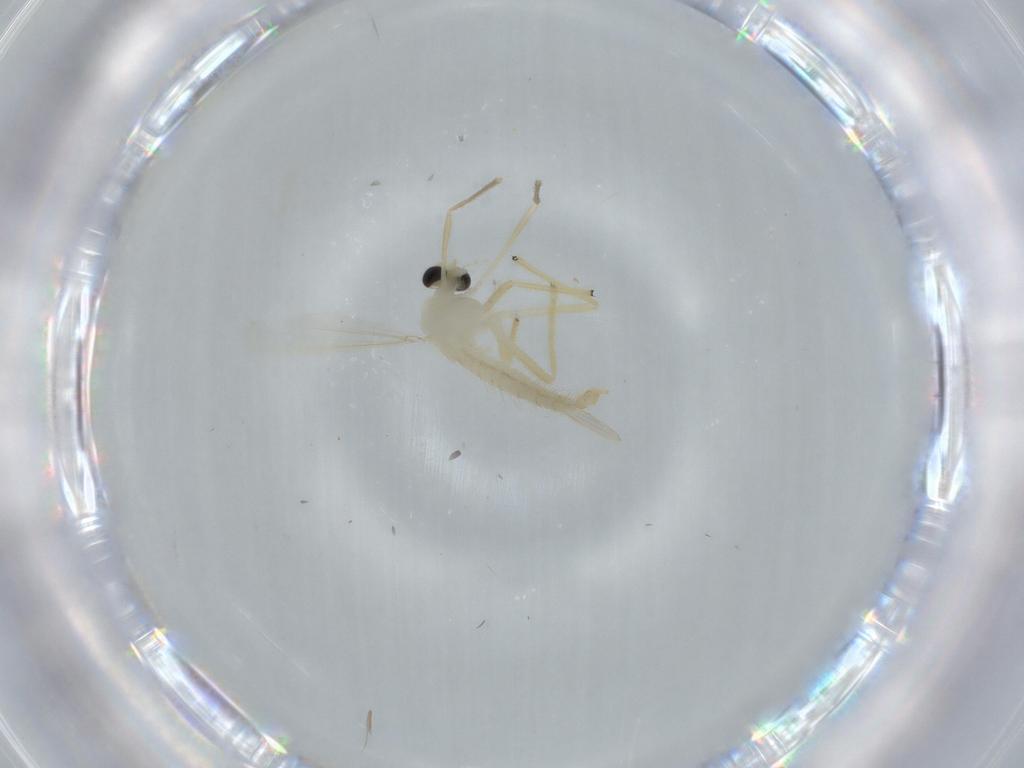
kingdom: Animalia
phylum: Arthropoda
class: Insecta
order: Diptera
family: Chironomidae
